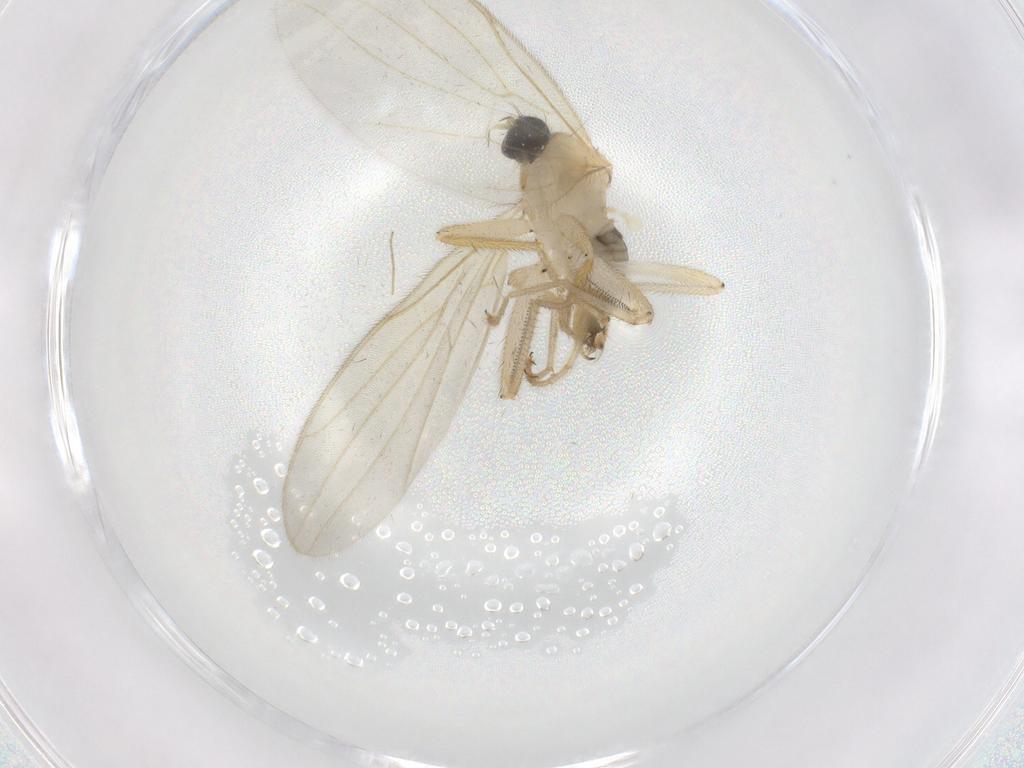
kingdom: Animalia
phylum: Arthropoda
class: Insecta
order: Diptera
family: Hybotidae
